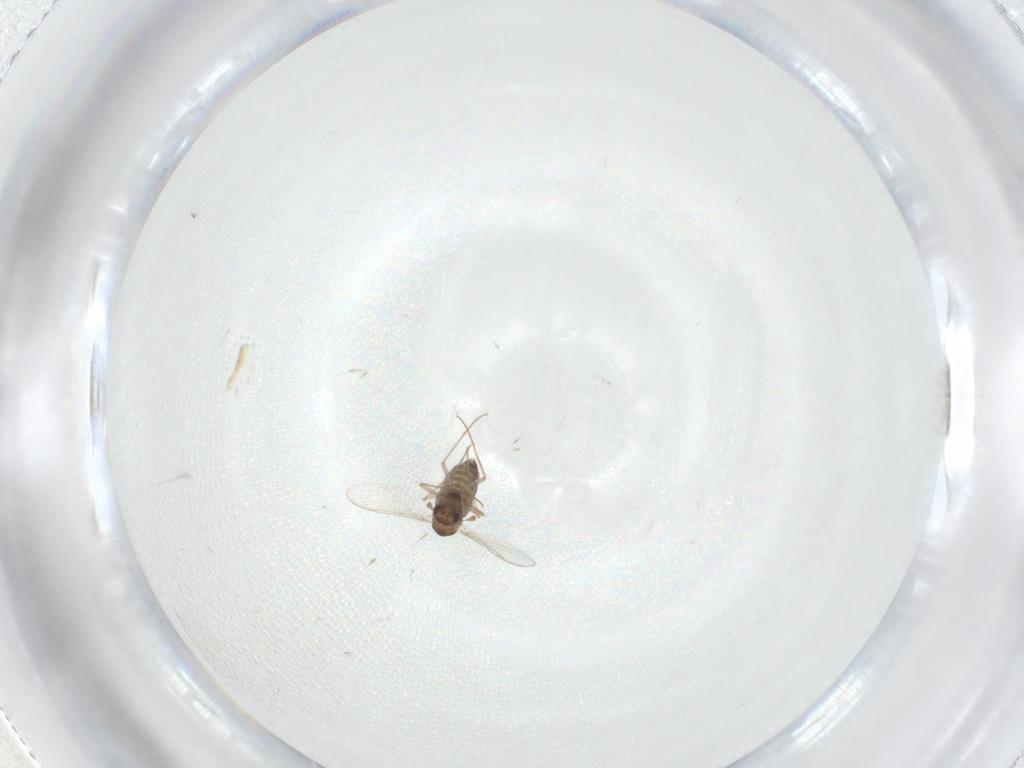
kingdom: Animalia
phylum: Arthropoda
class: Insecta
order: Diptera
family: Chironomidae
